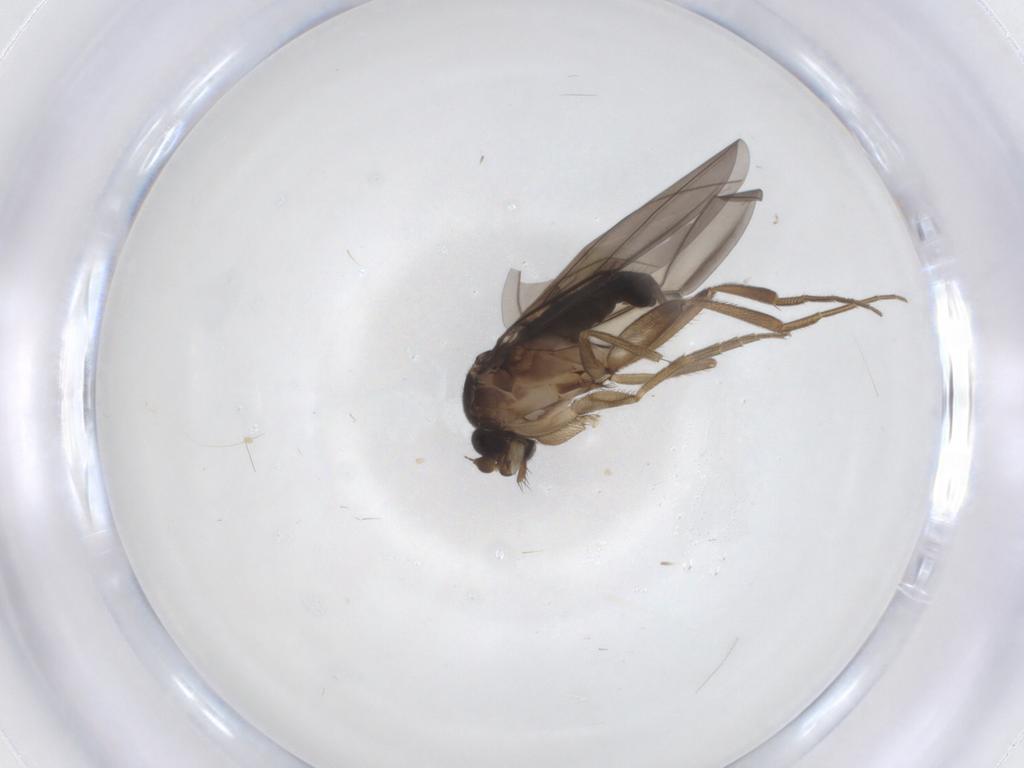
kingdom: Animalia
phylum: Arthropoda
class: Insecta
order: Diptera
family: Phoridae
